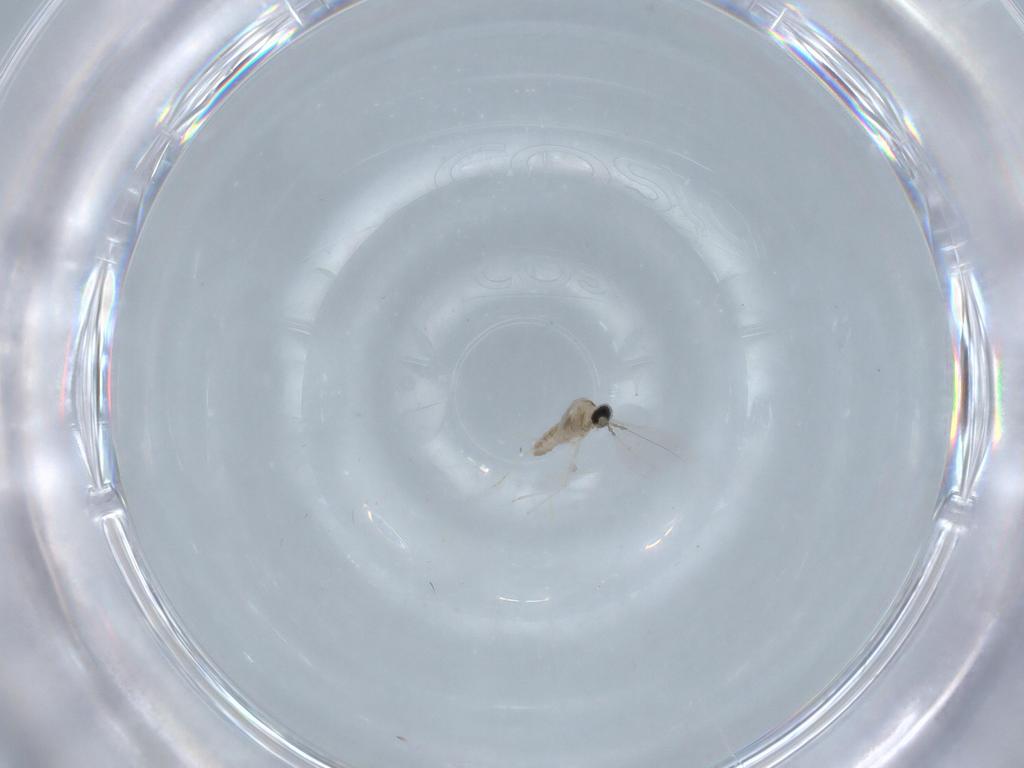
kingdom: Animalia
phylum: Arthropoda
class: Insecta
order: Diptera
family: Cecidomyiidae
